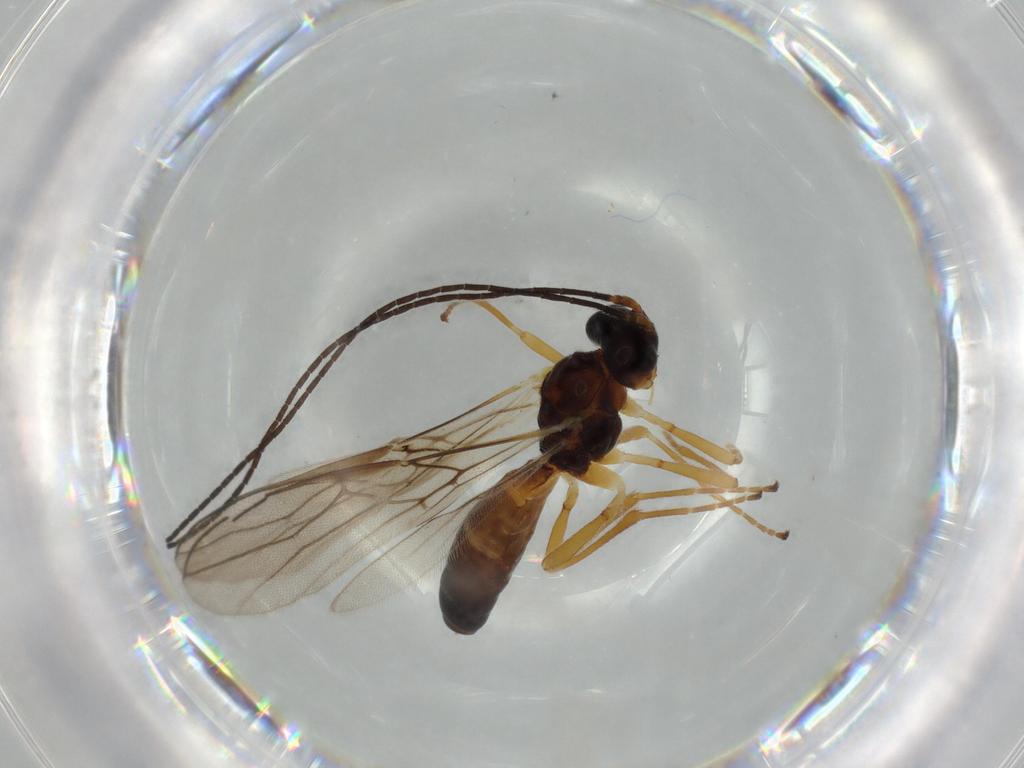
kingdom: Animalia
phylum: Arthropoda
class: Insecta
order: Hymenoptera
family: Braconidae
